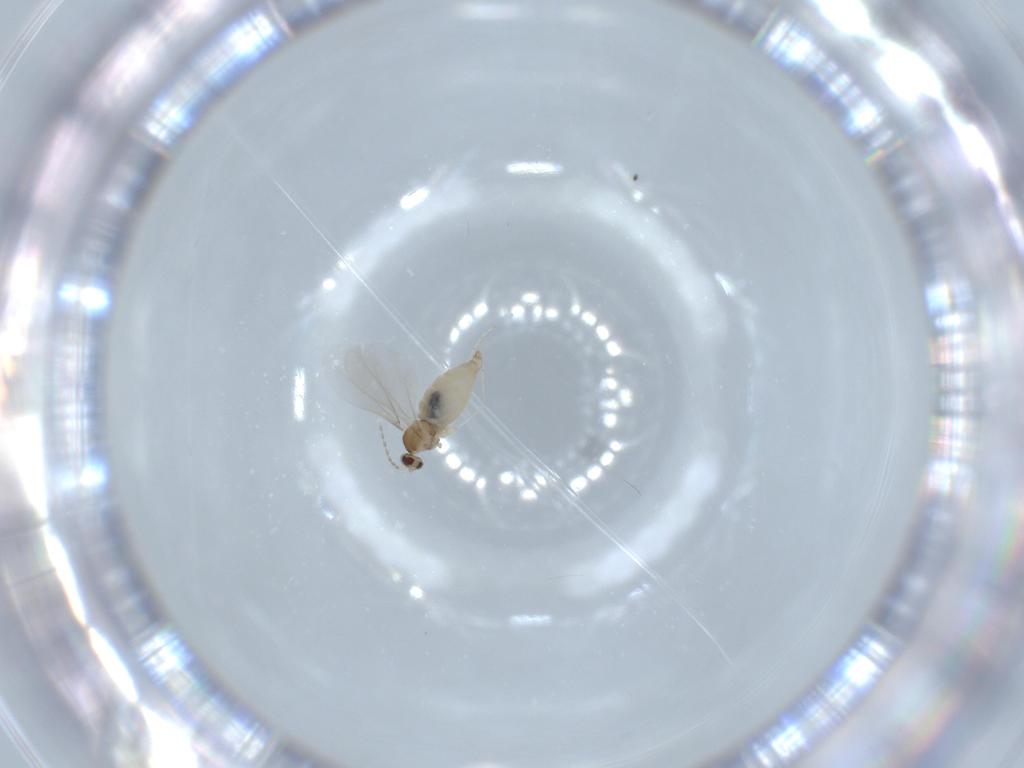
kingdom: Animalia
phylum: Arthropoda
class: Insecta
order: Diptera
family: Cecidomyiidae
